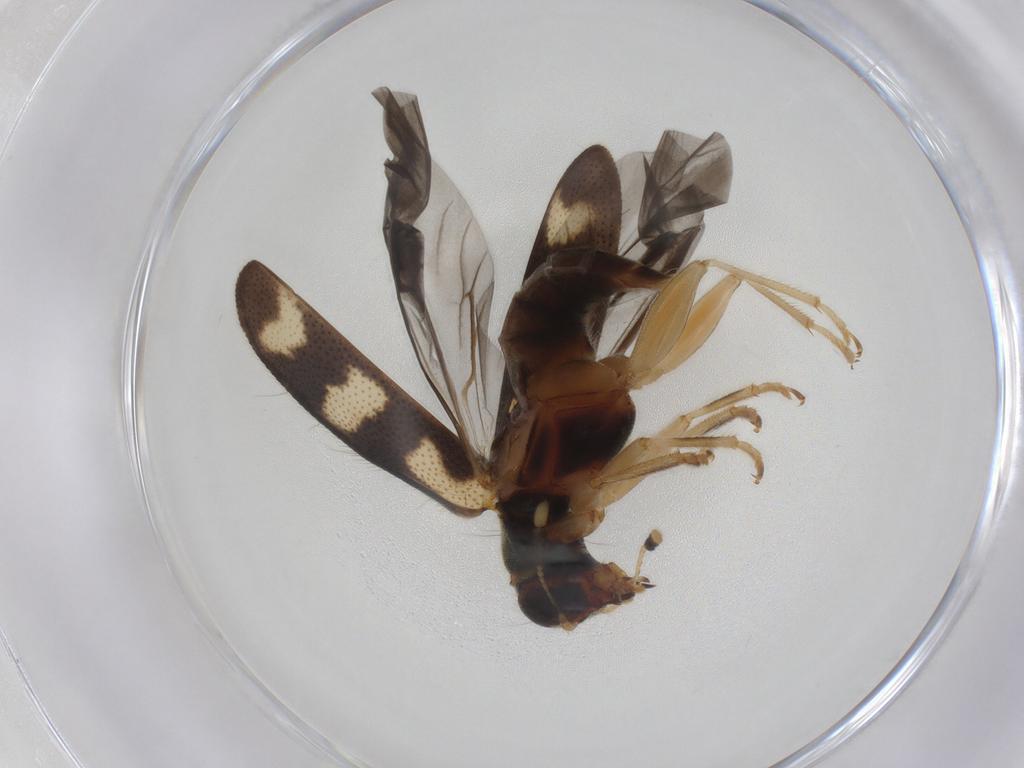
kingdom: Animalia
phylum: Arthropoda
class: Insecta
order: Coleoptera
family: Cleridae
